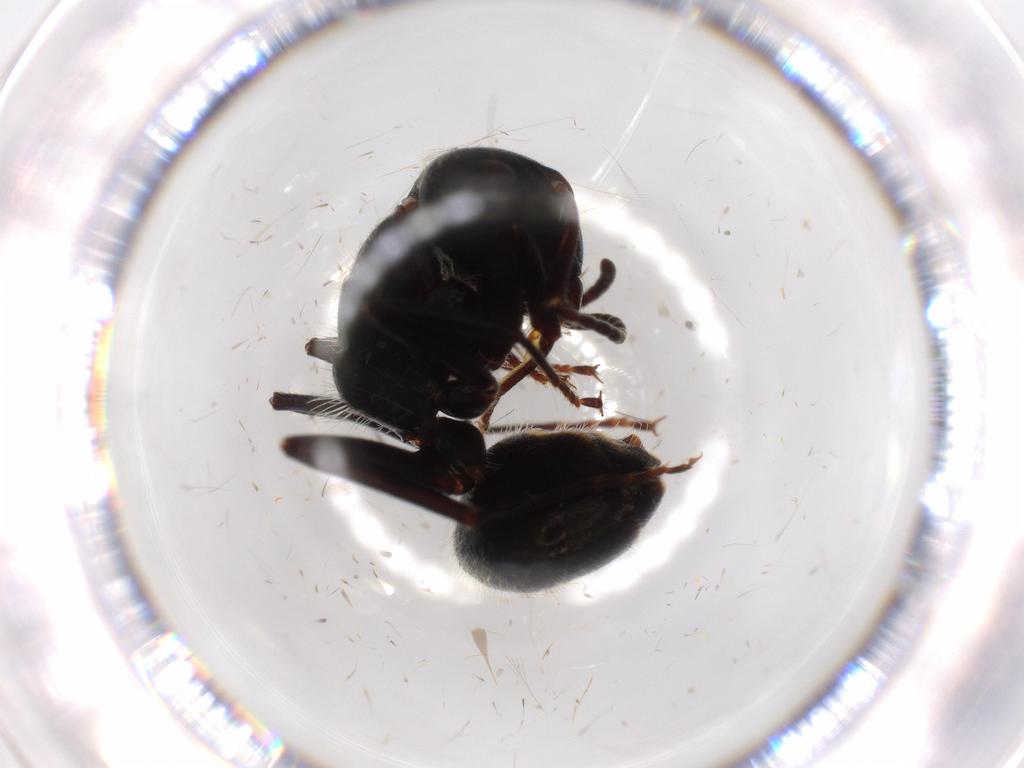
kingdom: Animalia
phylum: Arthropoda
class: Insecta
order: Hymenoptera
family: Formicidae
